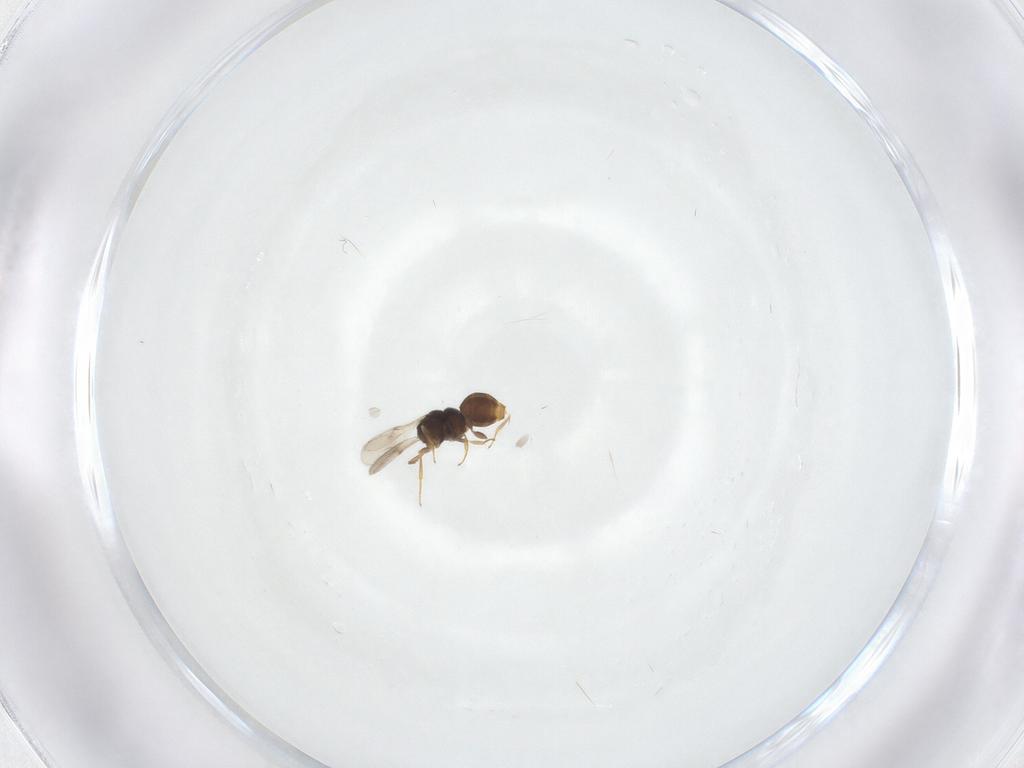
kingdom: Animalia
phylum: Arthropoda
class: Insecta
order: Hymenoptera
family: Scelionidae
